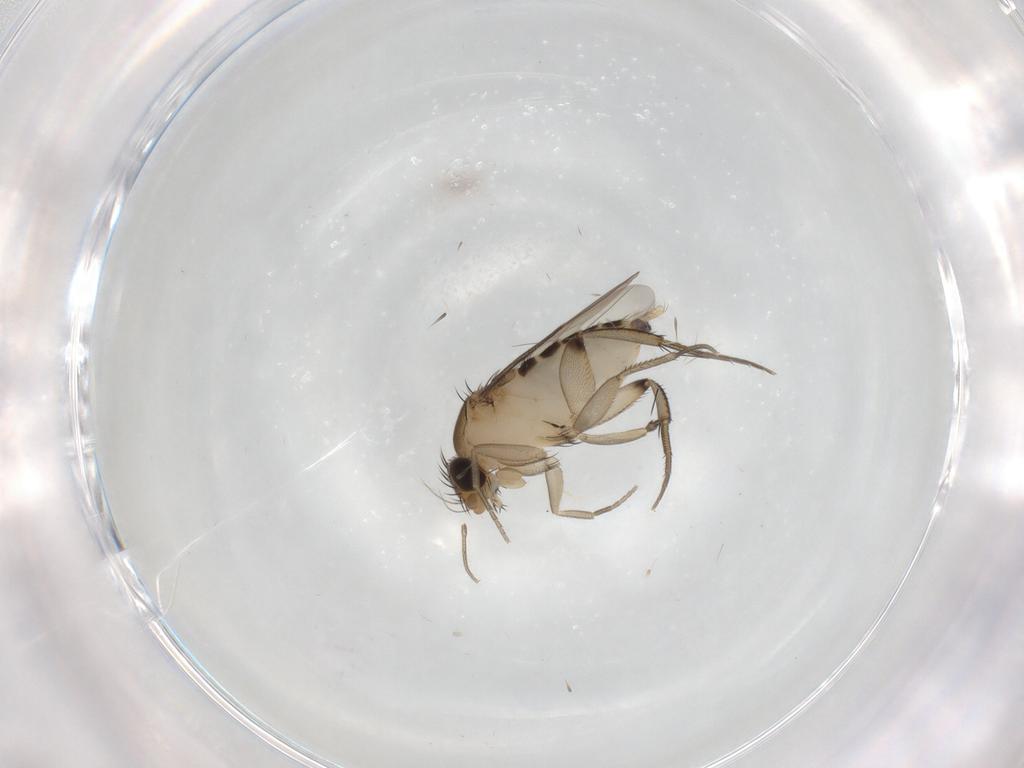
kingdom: Animalia
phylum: Arthropoda
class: Insecta
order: Diptera
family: Phoridae
